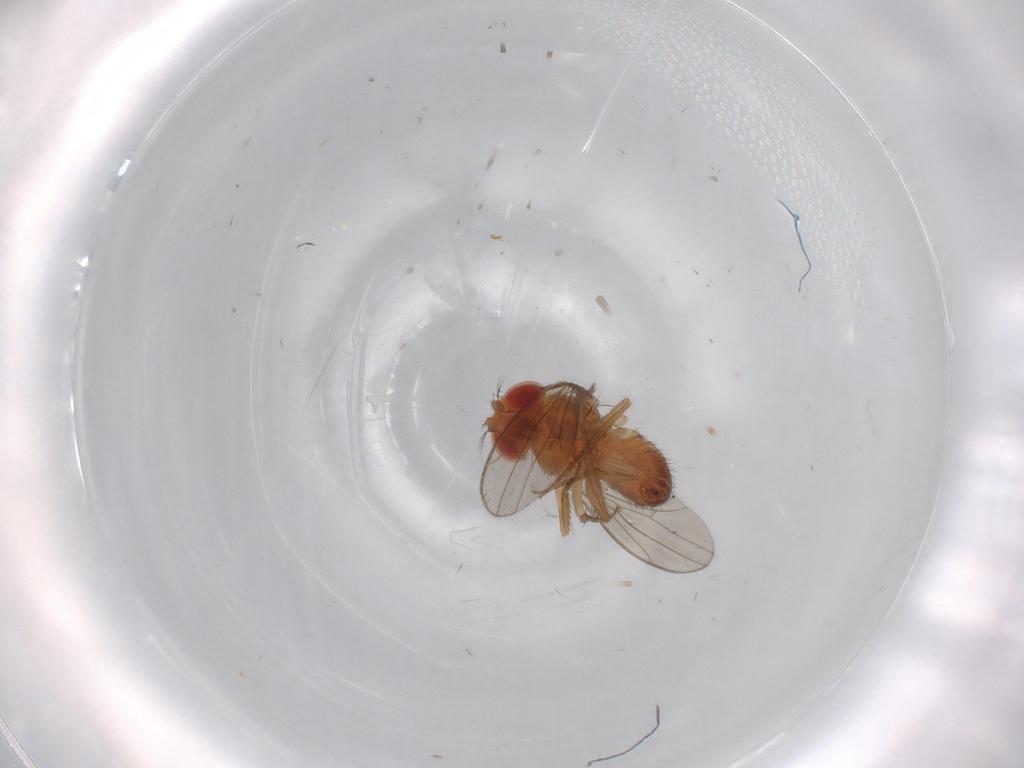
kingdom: Animalia
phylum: Arthropoda
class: Insecta
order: Diptera
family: Drosophilidae
